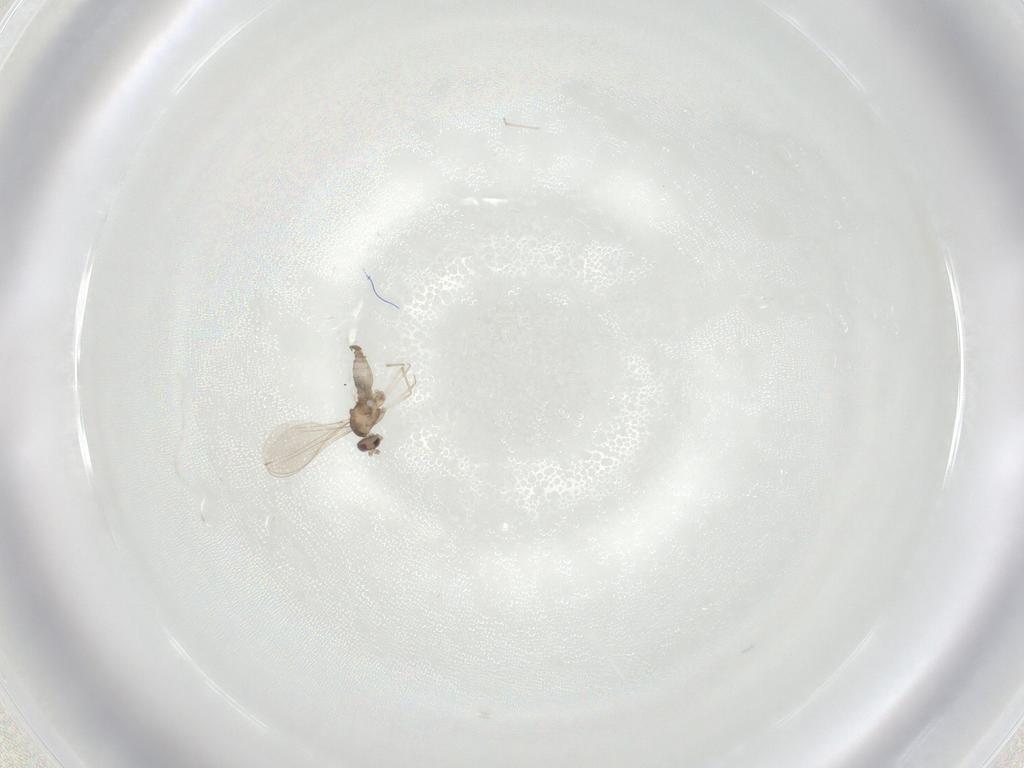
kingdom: Animalia
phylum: Arthropoda
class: Insecta
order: Diptera
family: Agromyzidae
